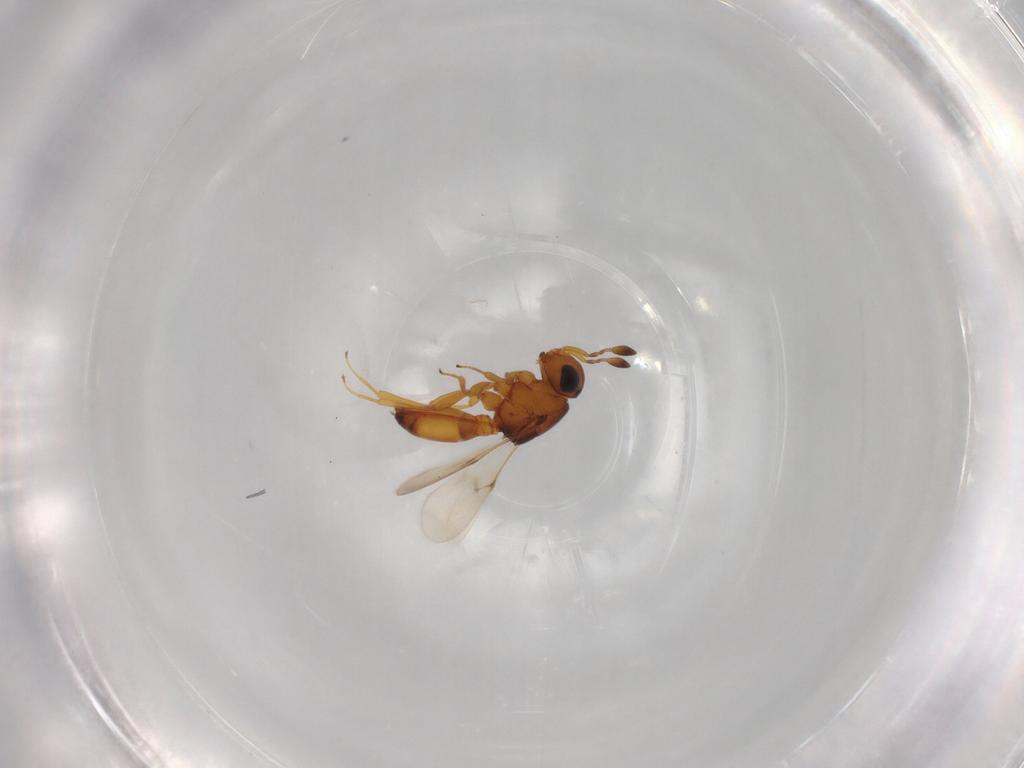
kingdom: Animalia
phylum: Arthropoda
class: Arachnida
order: Araneae
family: Pholcidae
